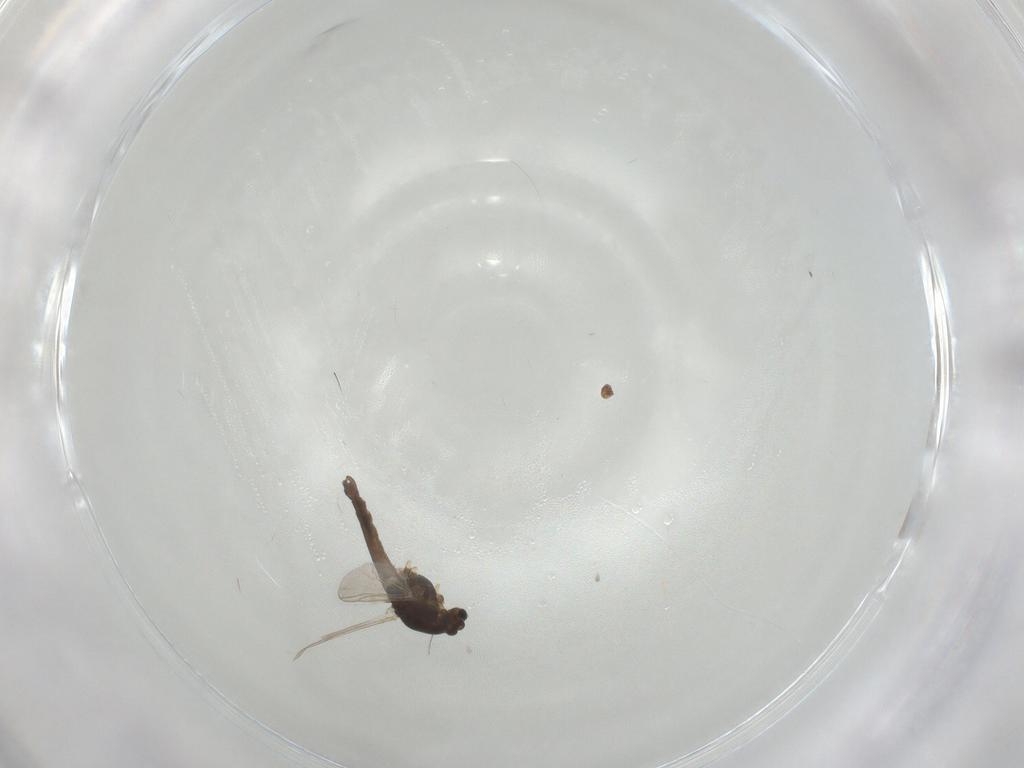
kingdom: Animalia
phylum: Arthropoda
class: Insecta
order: Diptera
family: Chironomidae
